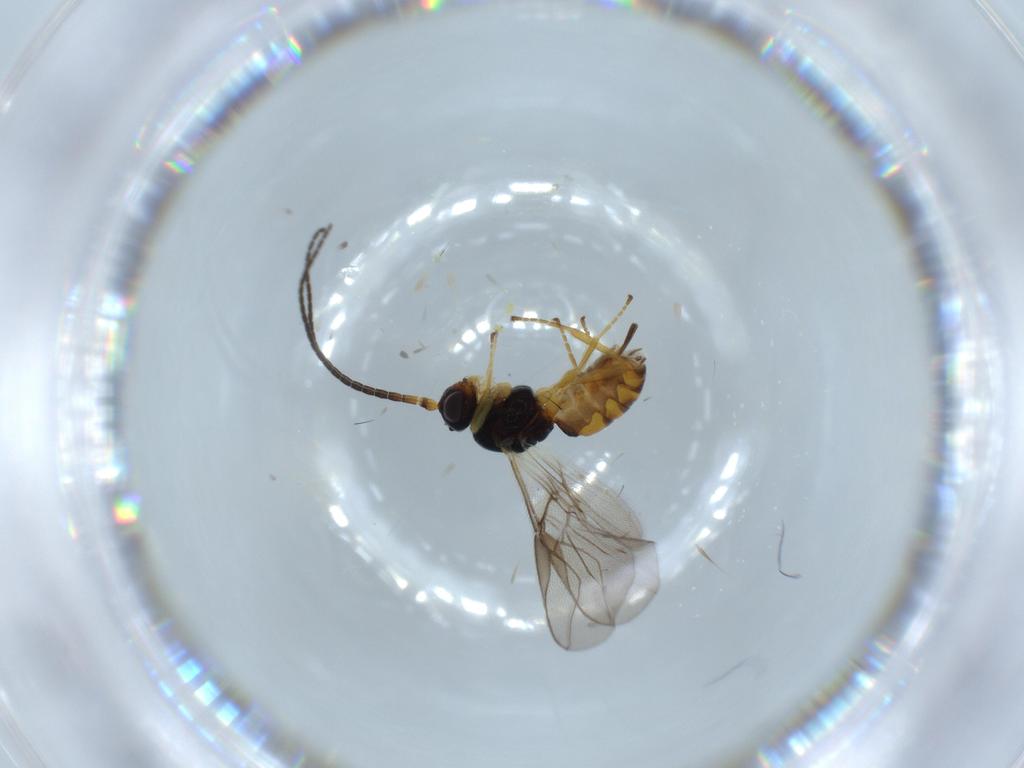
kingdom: Animalia
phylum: Arthropoda
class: Insecta
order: Hymenoptera
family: Braconidae
